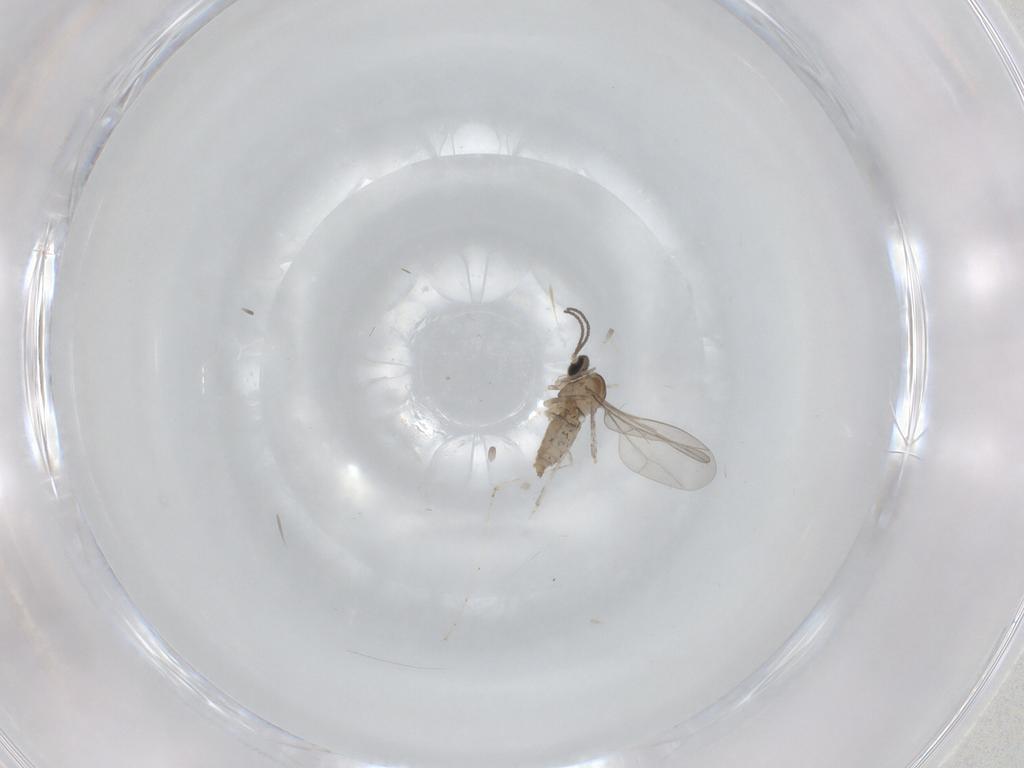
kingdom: Animalia
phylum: Arthropoda
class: Insecta
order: Diptera
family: Cecidomyiidae
